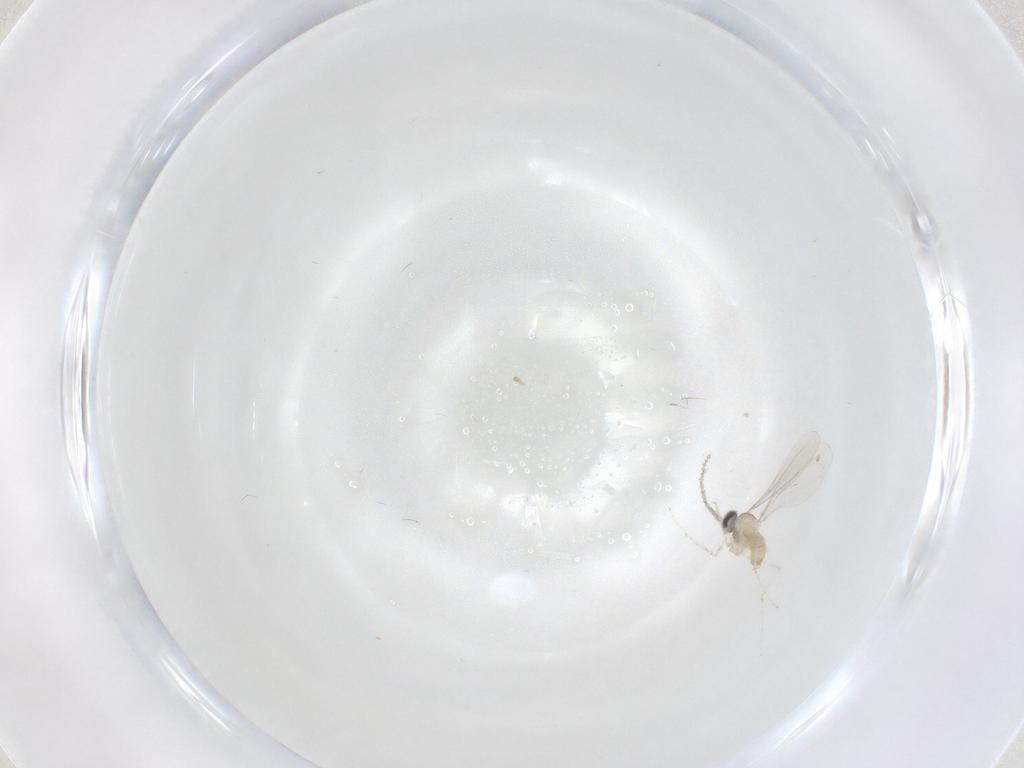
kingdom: Animalia
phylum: Arthropoda
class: Insecta
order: Diptera
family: Cecidomyiidae
